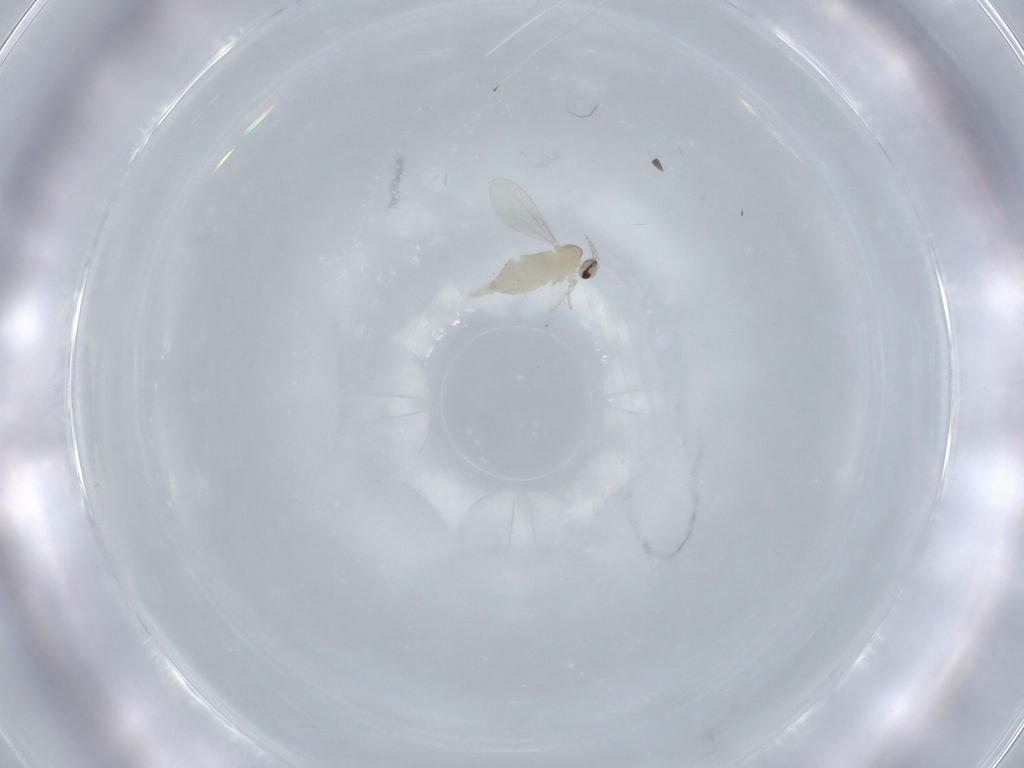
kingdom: Animalia
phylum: Arthropoda
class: Insecta
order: Diptera
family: Cecidomyiidae
